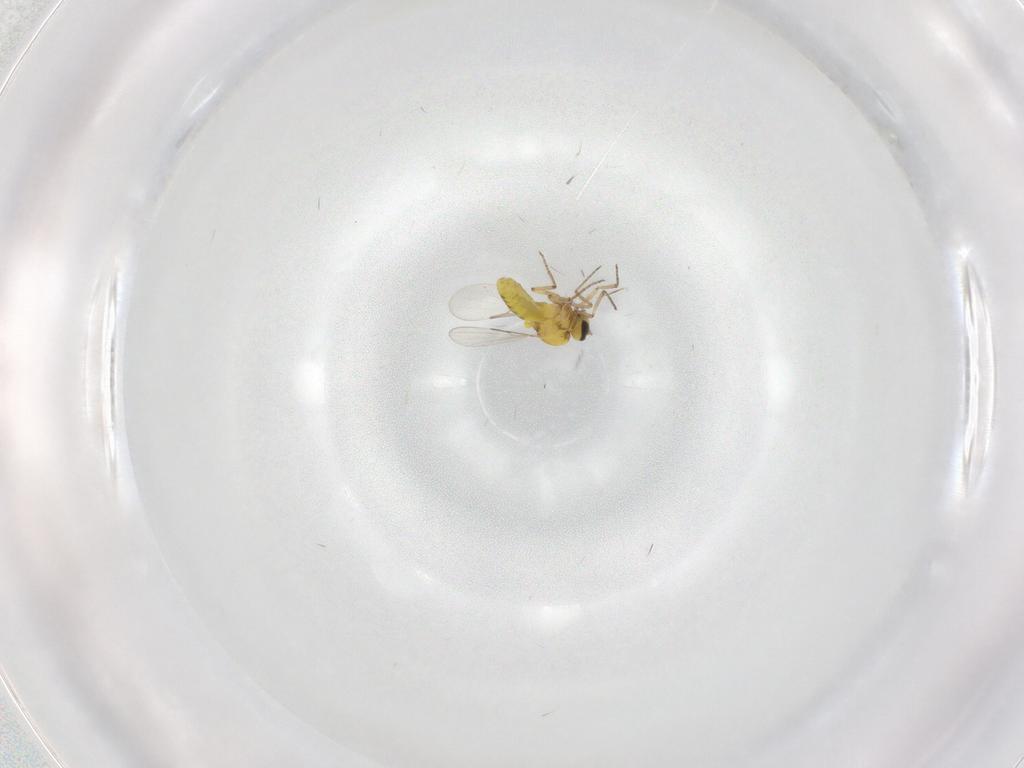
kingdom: Animalia
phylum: Arthropoda
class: Insecta
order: Diptera
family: Ceratopogonidae
